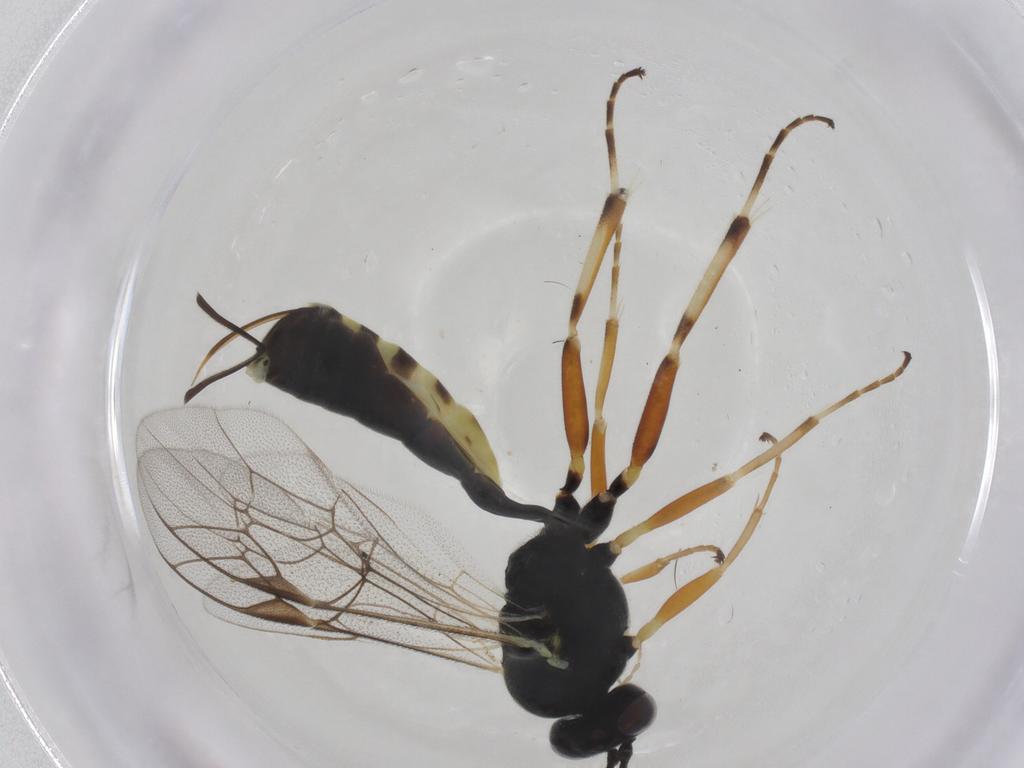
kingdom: Animalia
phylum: Arthropoda
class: Insecta
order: Hymenoptera
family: Ichneumonidae
